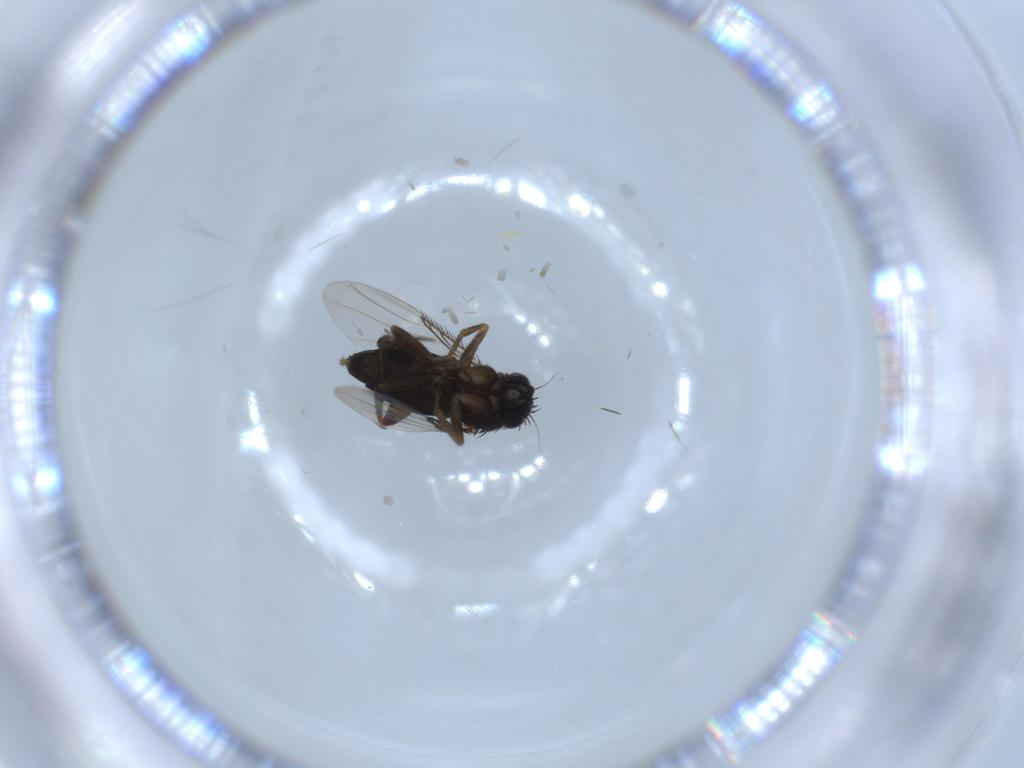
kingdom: Animalia
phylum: Arthropoda
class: Insecta
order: Diptera
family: Phoridae
